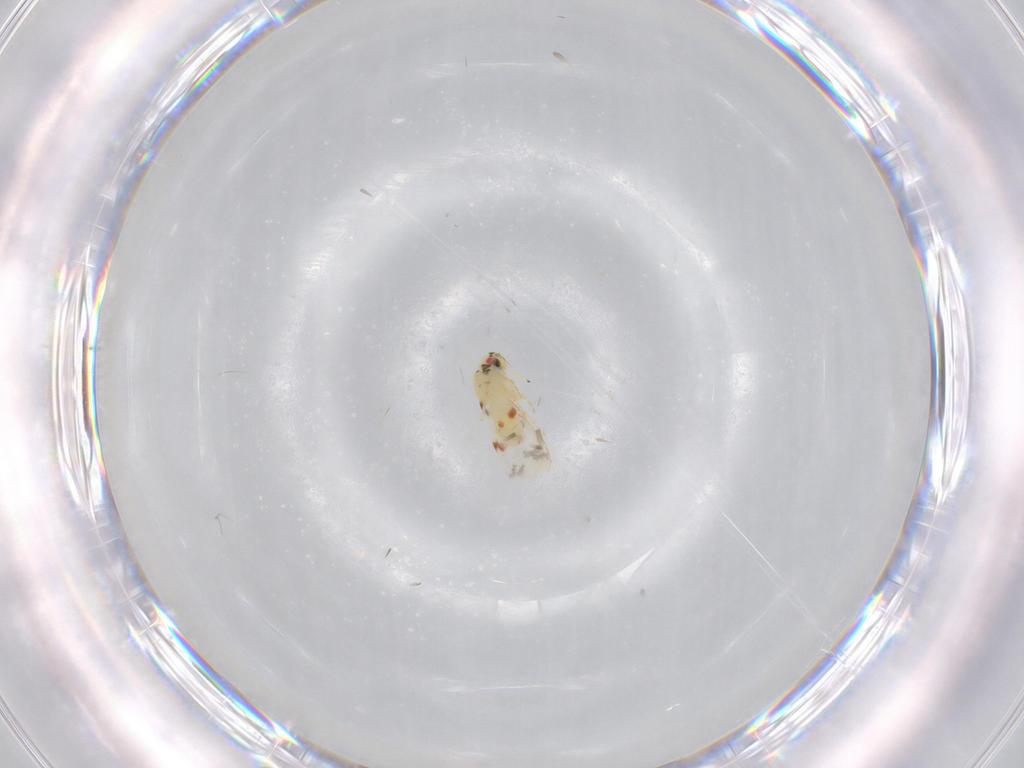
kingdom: Animalia
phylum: Arthropoda
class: Insecta
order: Hemiptera
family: Aleyrodidae
